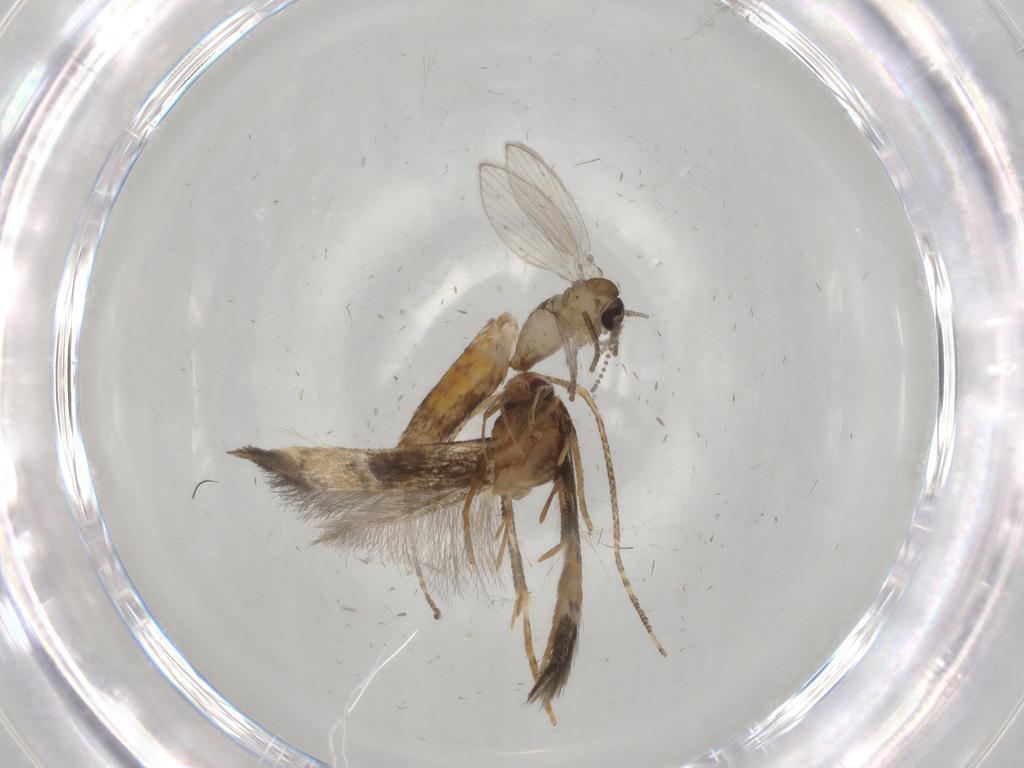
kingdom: Animalia
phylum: Arthropoda
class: Insecta
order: Diptera
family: Psychodidae
